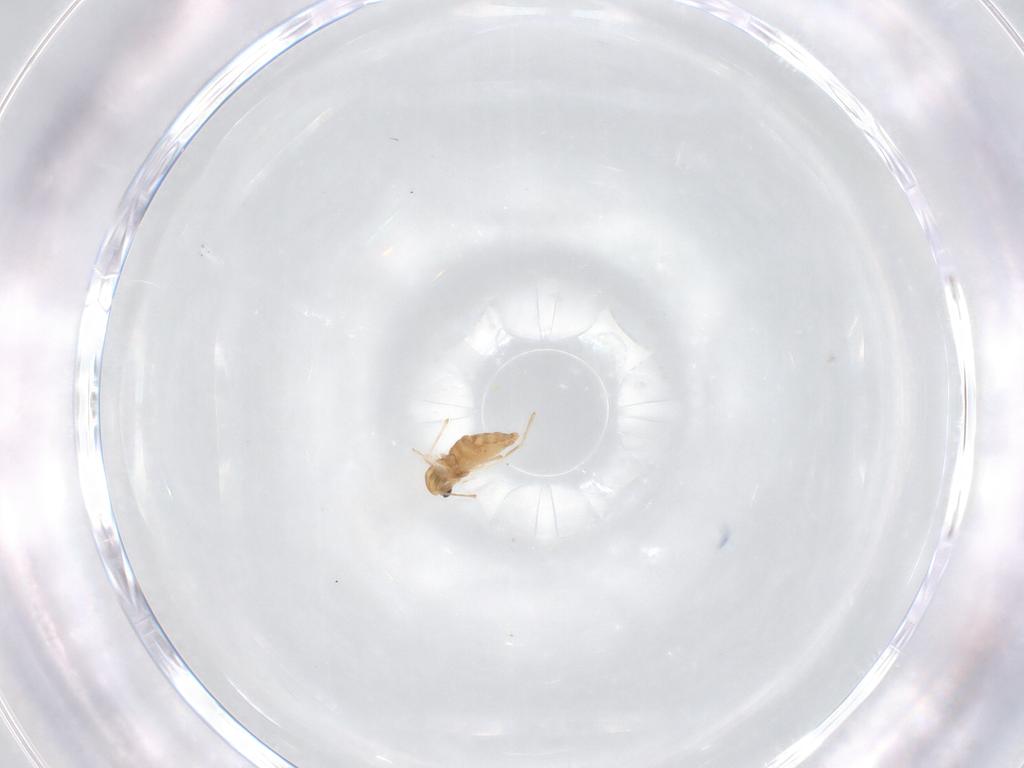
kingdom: Animalia
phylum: Arthropoda
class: Insecta
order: Diptera
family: Chironomidae
